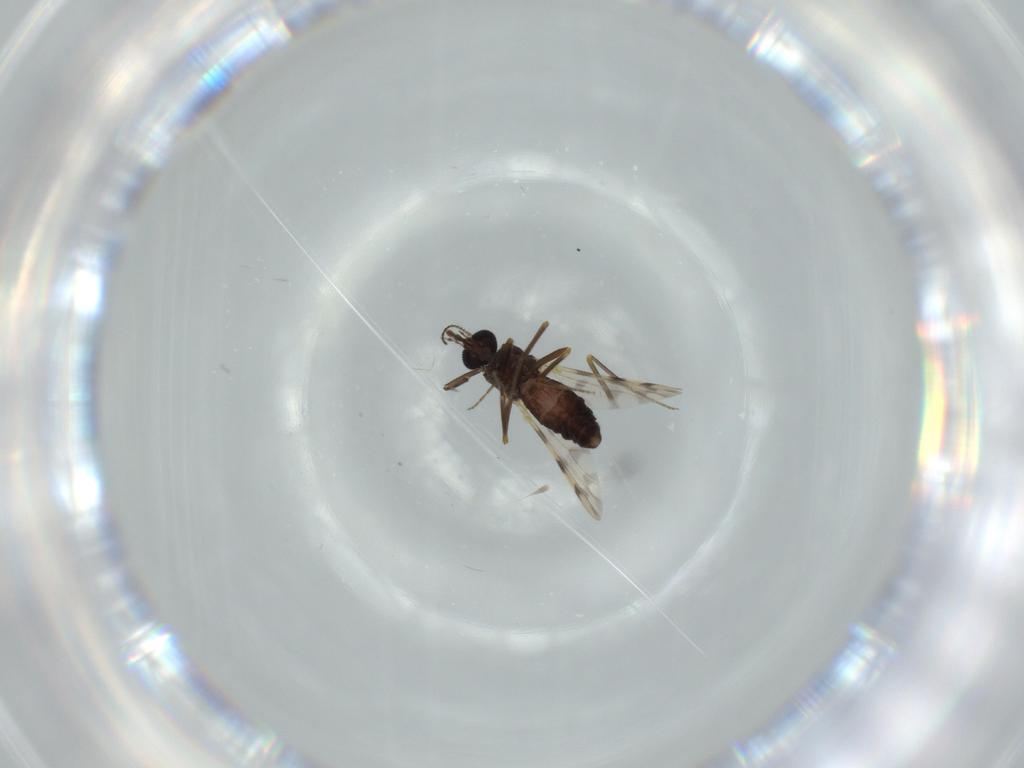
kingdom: Animalia
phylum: Arthropoda
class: Insecta
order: Diptera
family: Ceratopogonidae
